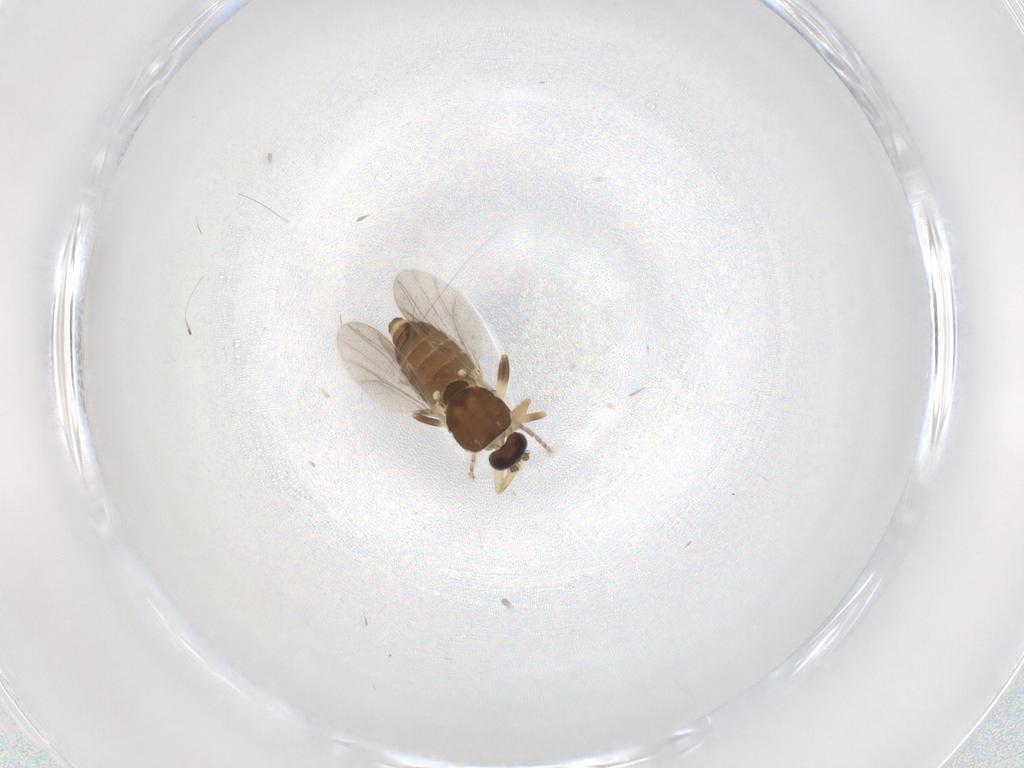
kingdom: Animalia
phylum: Arthropoda
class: Insecta
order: Diptera
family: Ceratopogonidae
